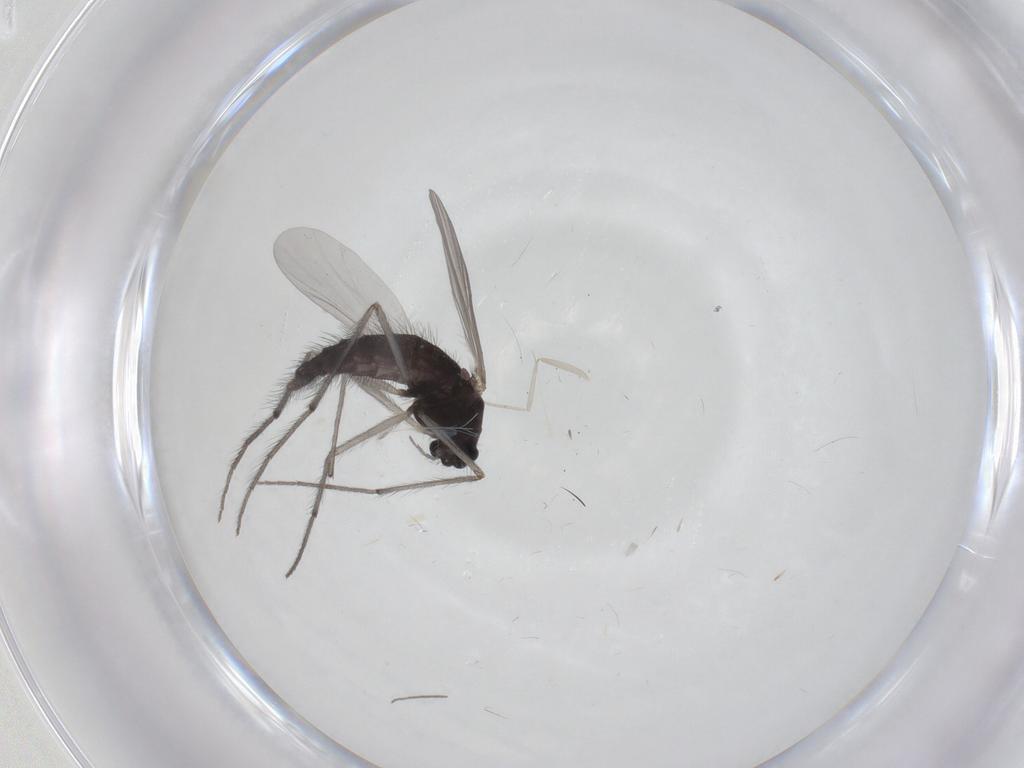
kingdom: Animalia
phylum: Arthropoda
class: Insecta
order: Diptera
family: Chironomidae
